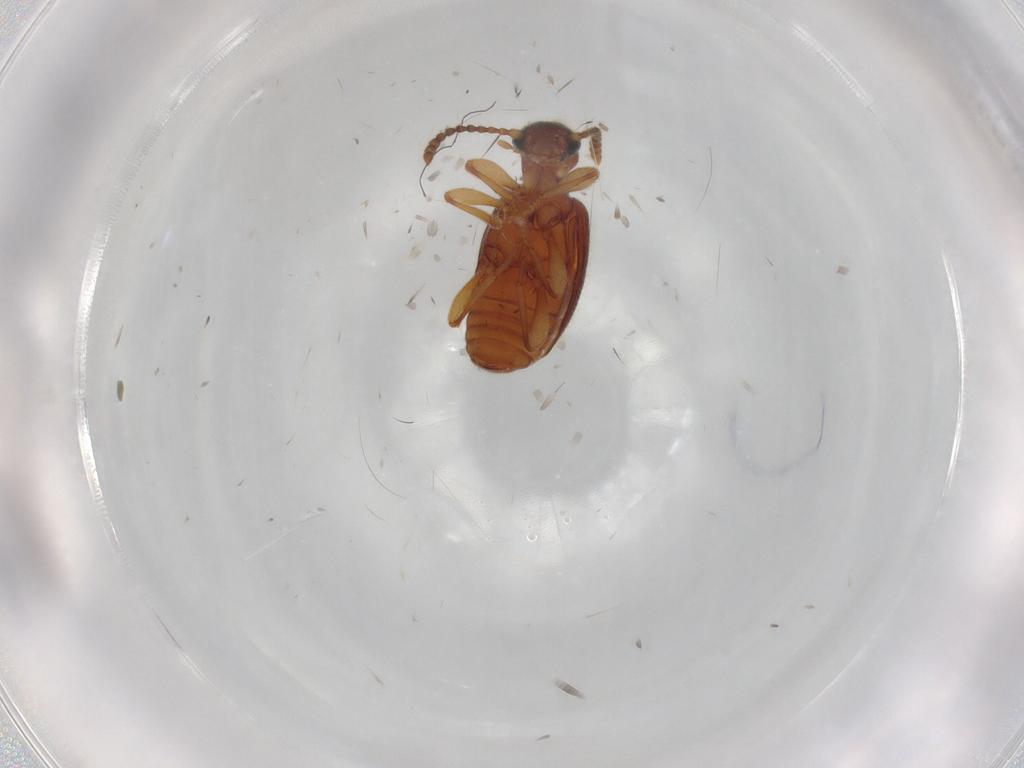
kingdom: Animalia
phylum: Arthropoda
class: Insecta
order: Coleoptera
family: Anthicidae
